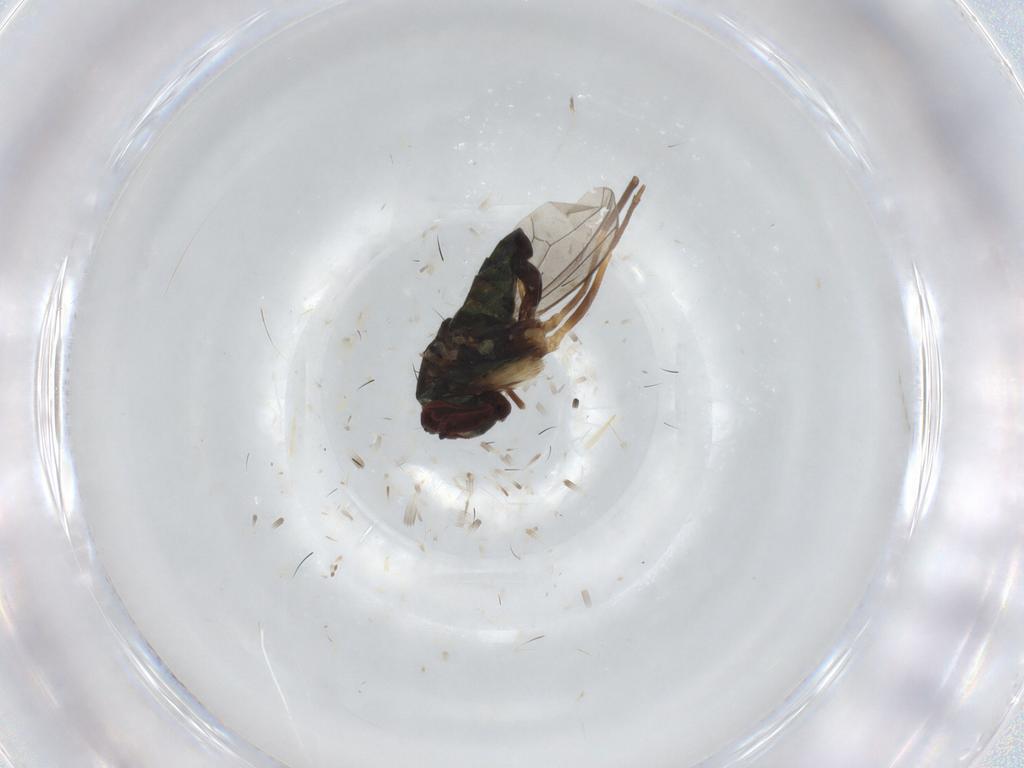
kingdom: Animalia
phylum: Arthropoda
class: Insecta
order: Diptera
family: Dolichopodidae
